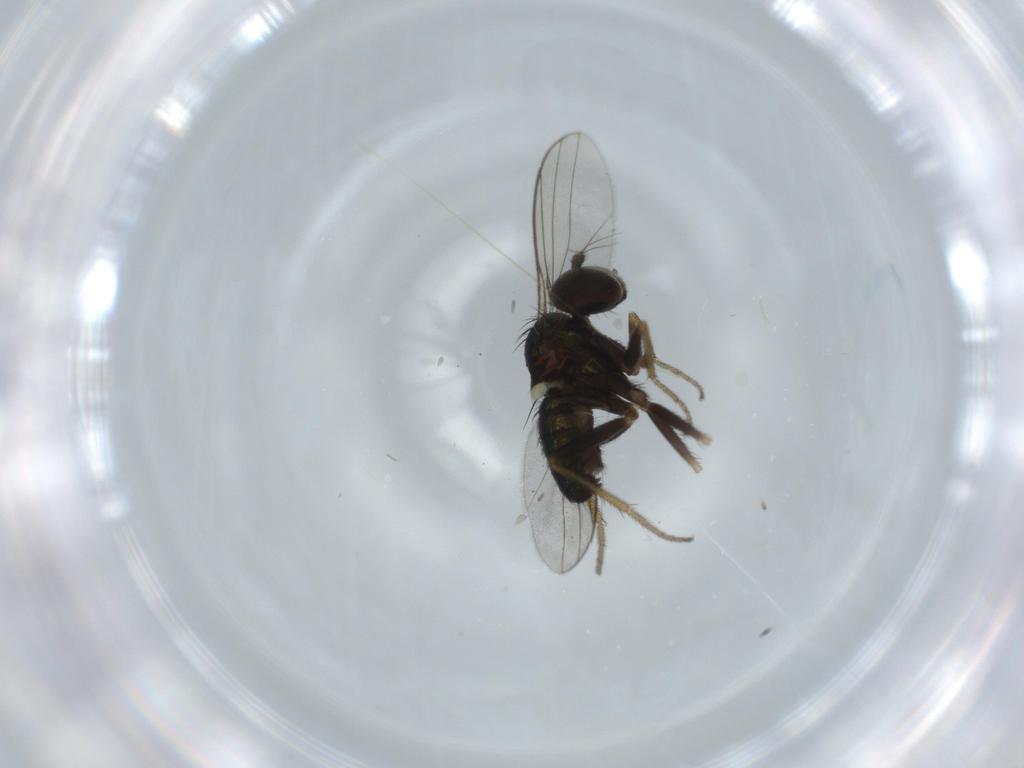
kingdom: Animalia
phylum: Arthropoda
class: Insecta
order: Diptera
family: Dolichopodidae
